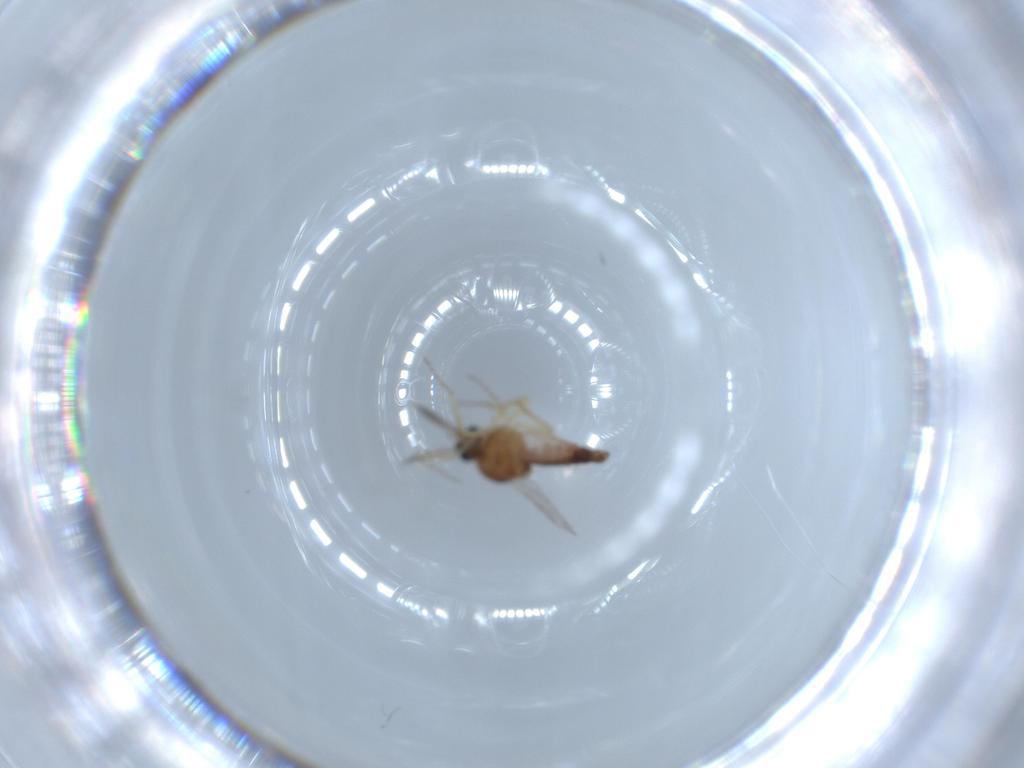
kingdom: Animalia
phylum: Arthropoda
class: Insecta
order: Diptera
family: Ceratopogonidae
